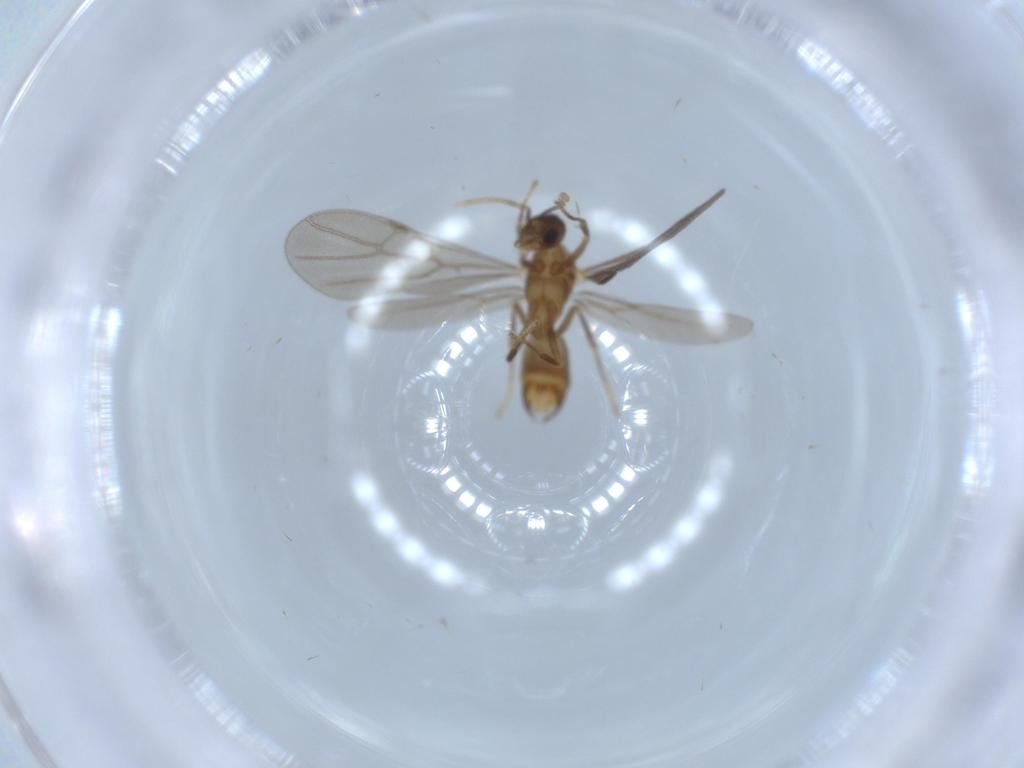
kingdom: Animalia
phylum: Arthropoda
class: Insecta
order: Hymenoptera
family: Formicidae
